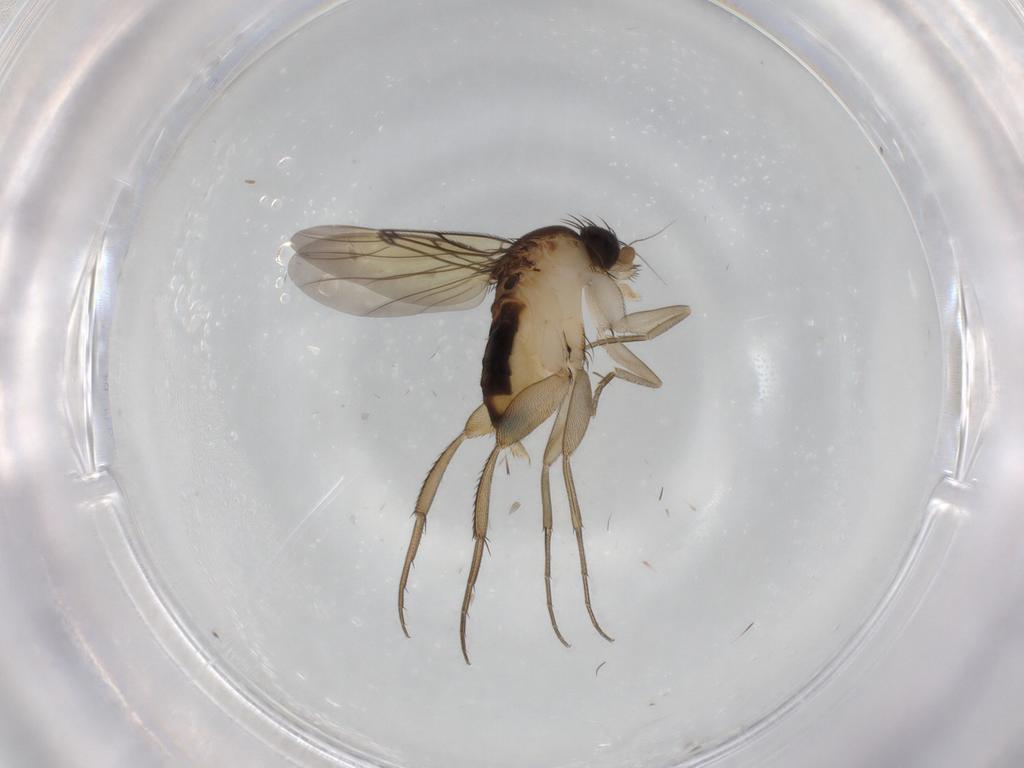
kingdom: Animalia
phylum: Arthropoda
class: Insecta
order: Diptera
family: Cecidomyiidae
